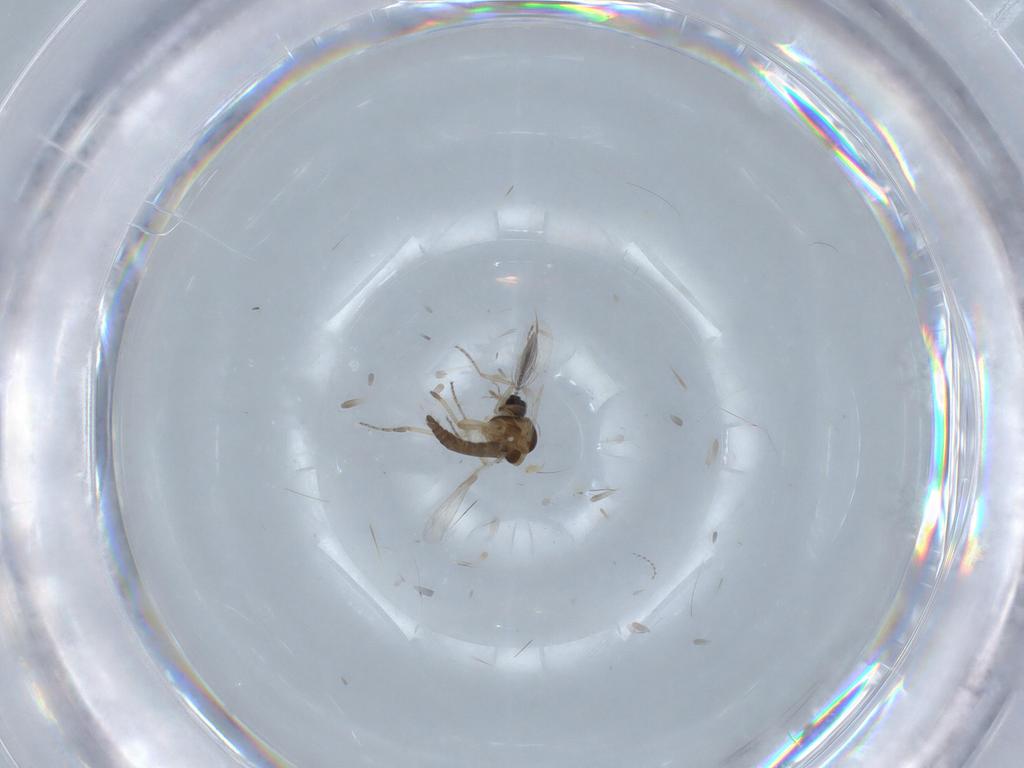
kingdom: Animalia
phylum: Arthropoda
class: Insecta
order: Diptera
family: Ceratopogonidae
